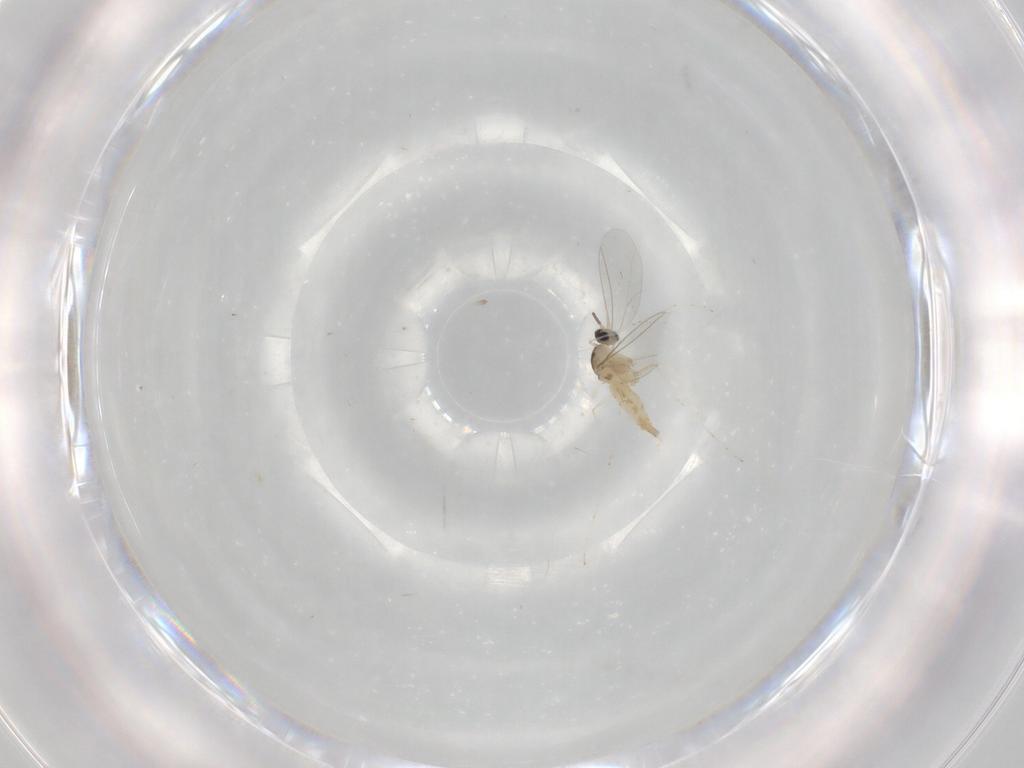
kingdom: Animalia
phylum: Arthropoda
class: Insecta
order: Diptera
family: Cecidomyiidae
